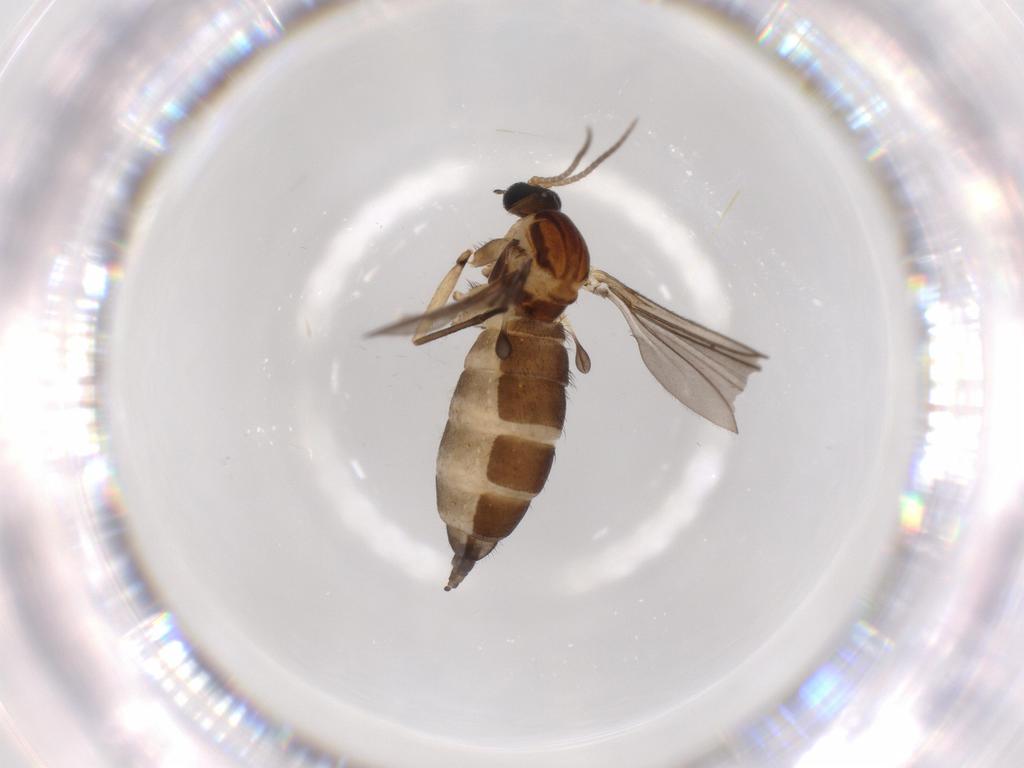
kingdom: Animalia
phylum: Arthropoda
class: Insecta
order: Diptera
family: Sciaridae
